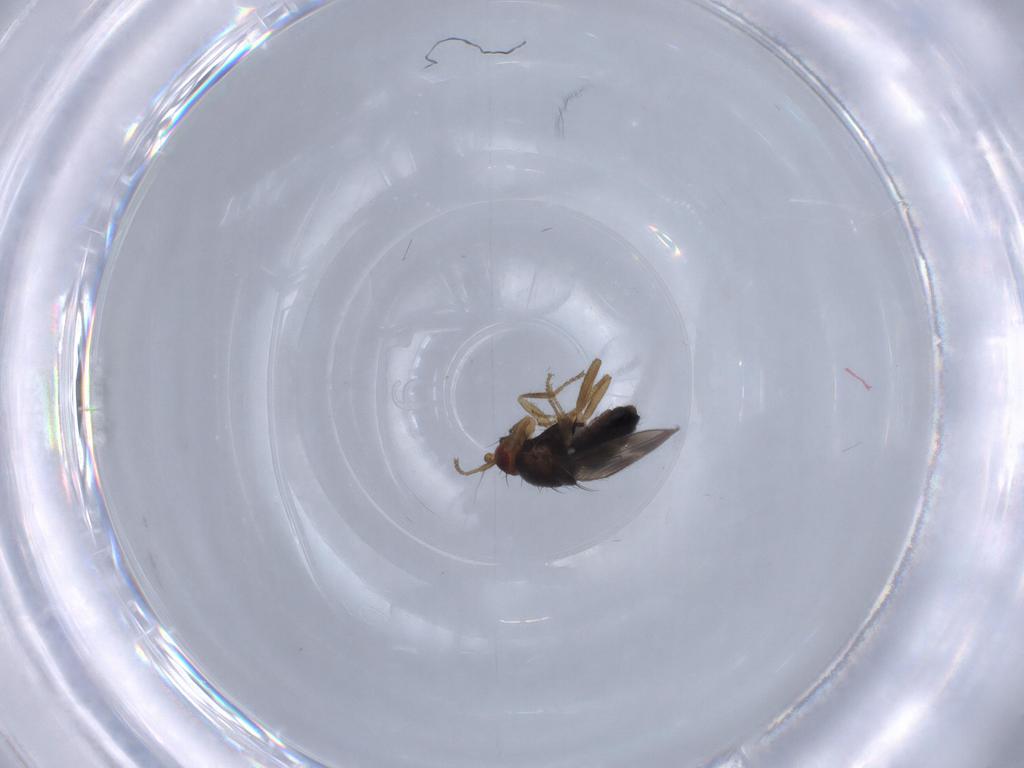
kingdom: Animalia
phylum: Arthropoda
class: Insecta
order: Diptera
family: Sphaeroceridae
